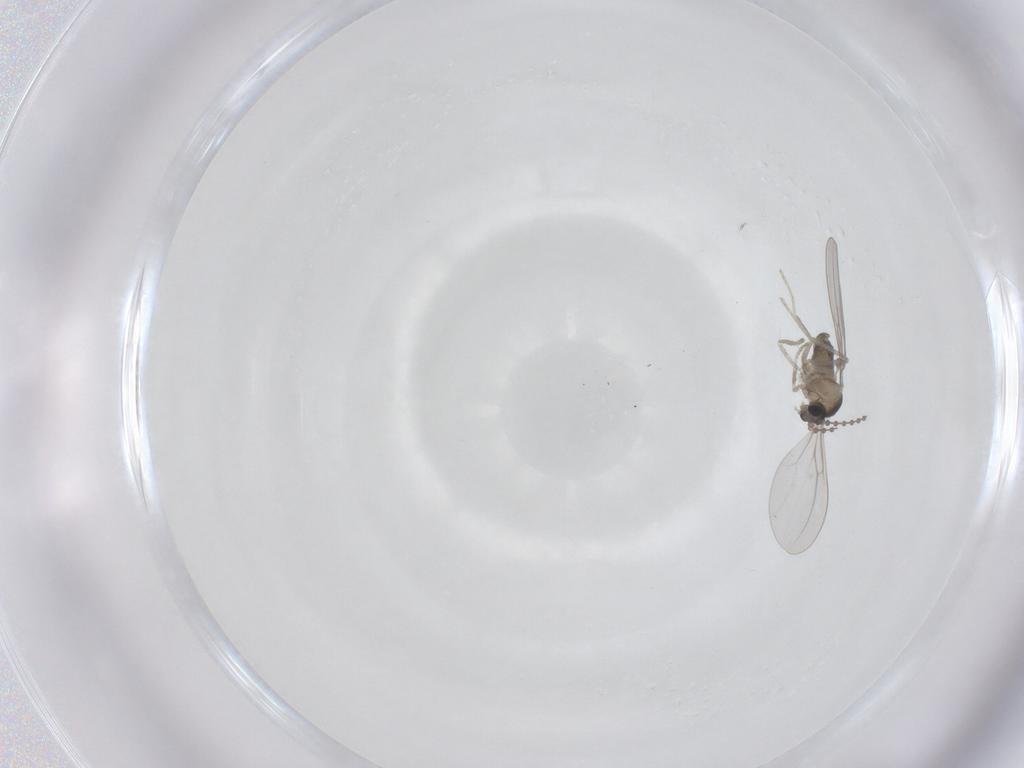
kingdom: Animalia
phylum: Arthropoda
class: Insecta
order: Diptera
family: Cecidomyiidae
